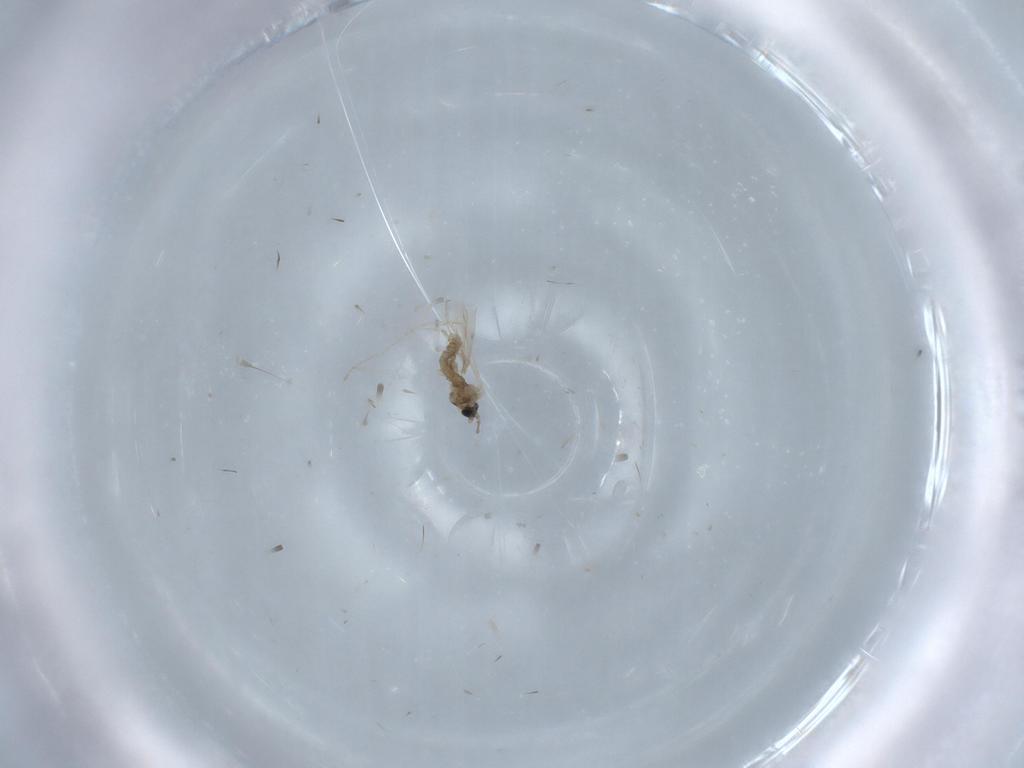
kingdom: Animalia
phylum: Arthropoda
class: Insecta
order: Diptera
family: Cecidomyiidae
